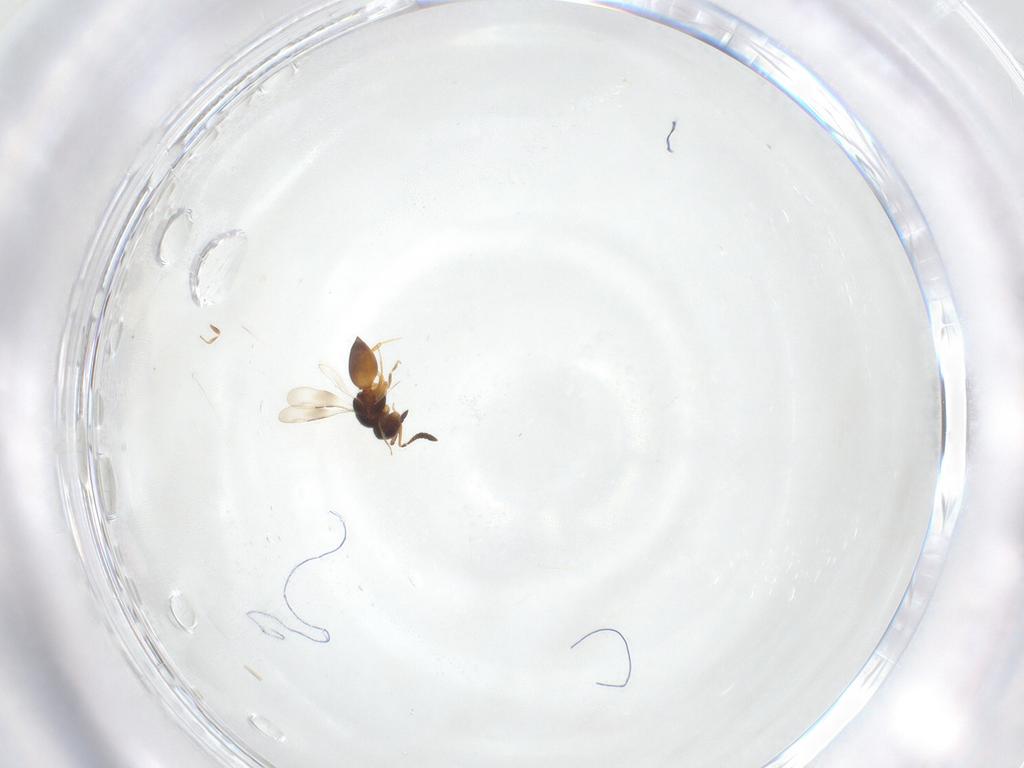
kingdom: Animalia
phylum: Arthropoda
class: Insecta
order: Hymenoptera
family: Ceraphronidae
